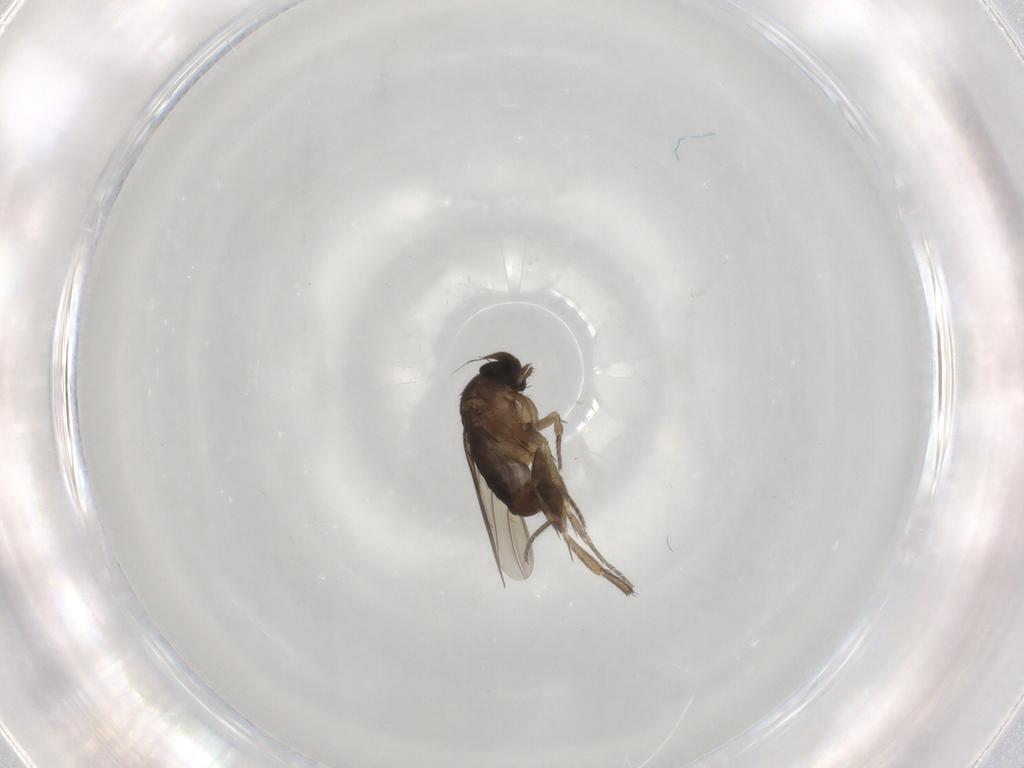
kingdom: Animalia
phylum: Arthropoda
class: Insecta
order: Diptera
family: Phoridae
